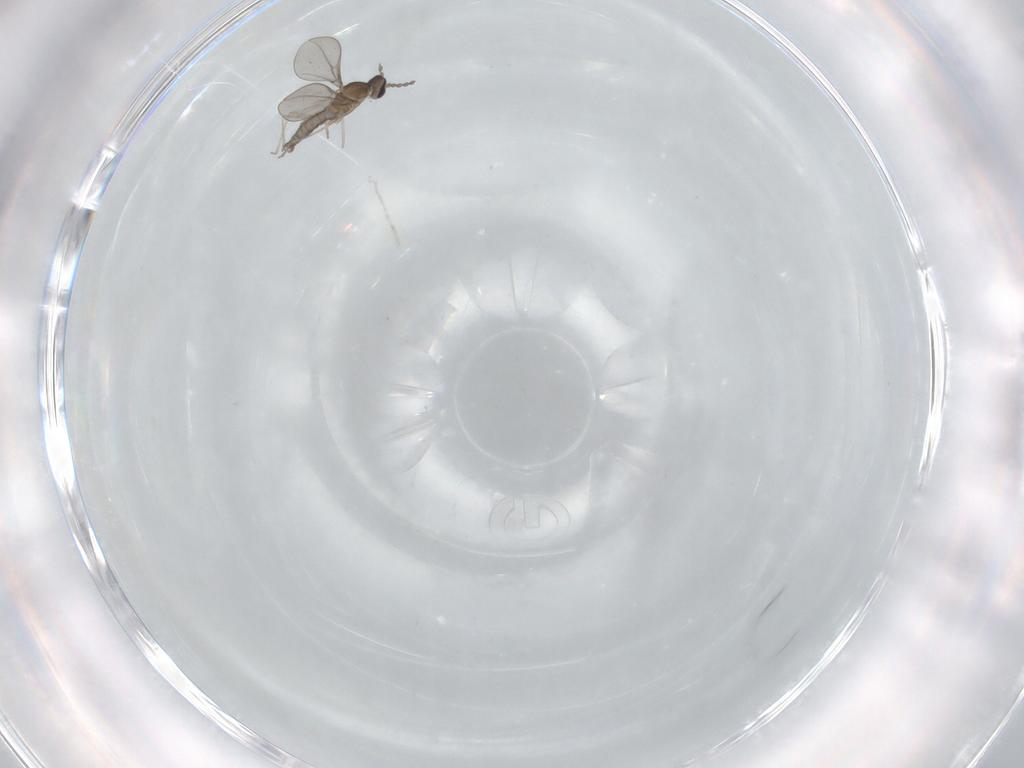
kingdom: Animalia
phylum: Arthropoda
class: Insecta
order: Diptera
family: Cecidomyiidae
